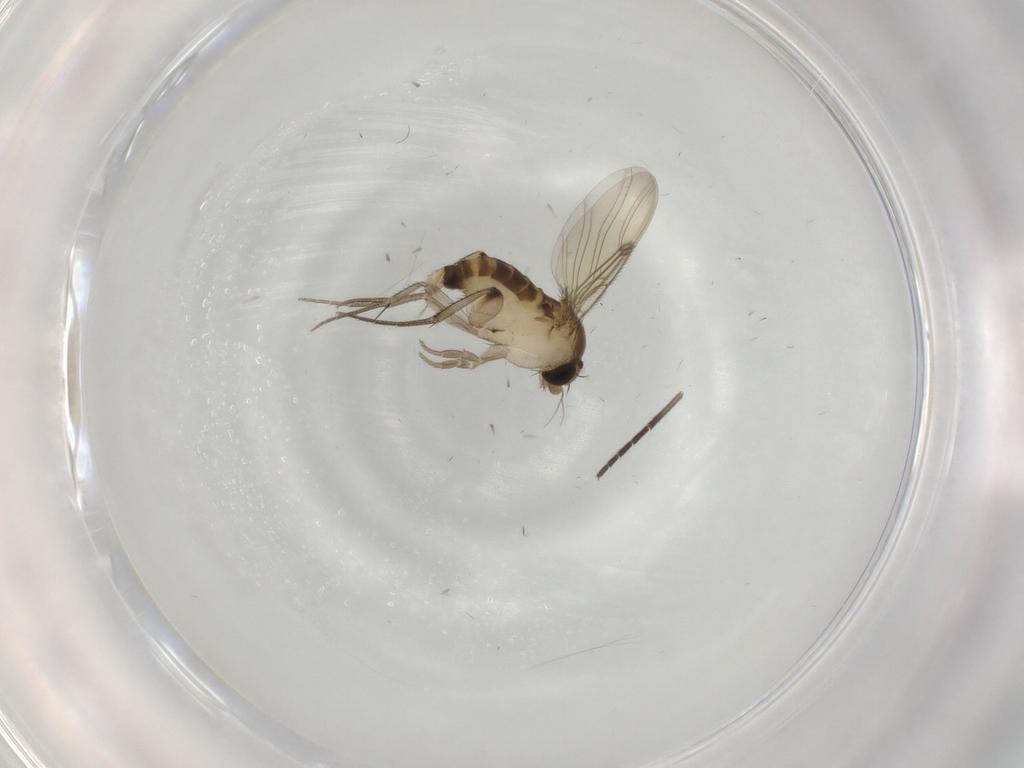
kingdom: Animalia
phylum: Arthropoda
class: Insecta
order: Diptera
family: Phoridae
